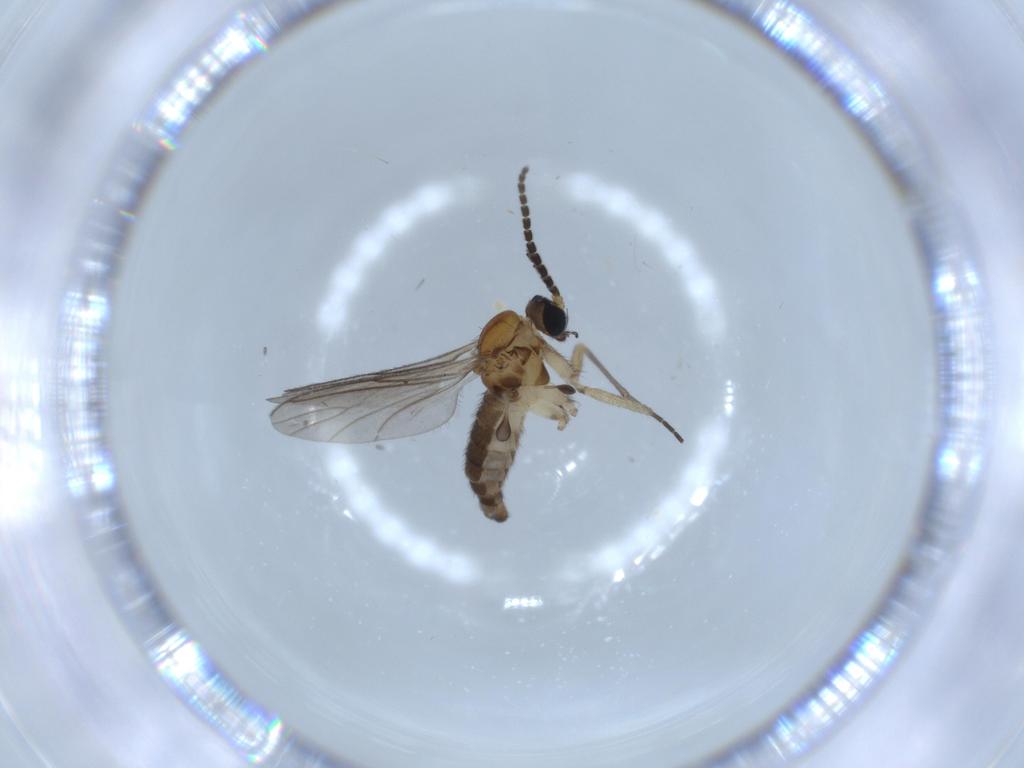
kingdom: Animalia
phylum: Arthropoda
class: Insecta
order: Diptera
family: Sciaridae
